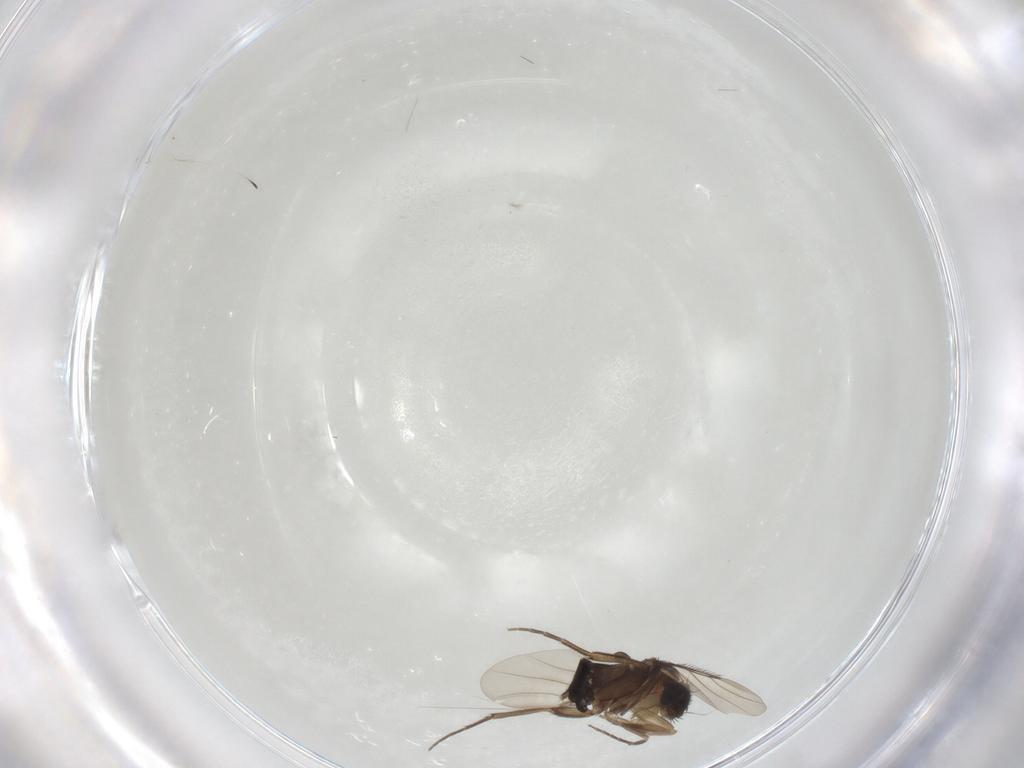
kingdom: Animalia
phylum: Arthropoda
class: Insecta
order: Diptera
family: Phoridae
